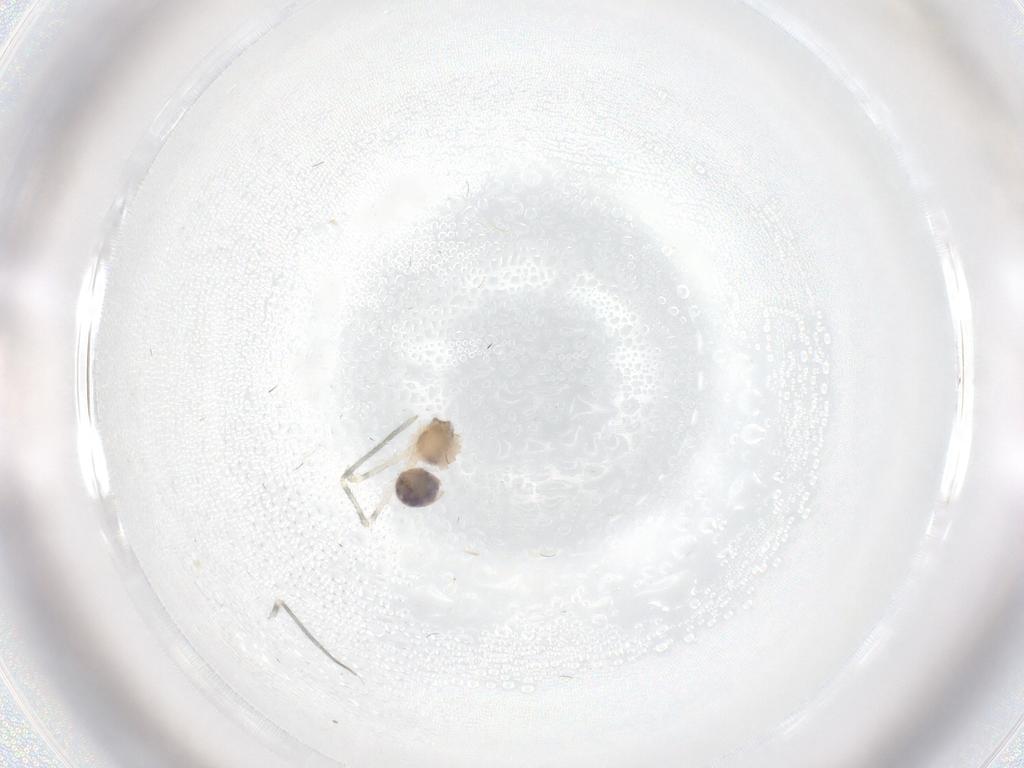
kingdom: Animalia
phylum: Arthropoda
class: Arachnida
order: Araneae
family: Pholcidae
